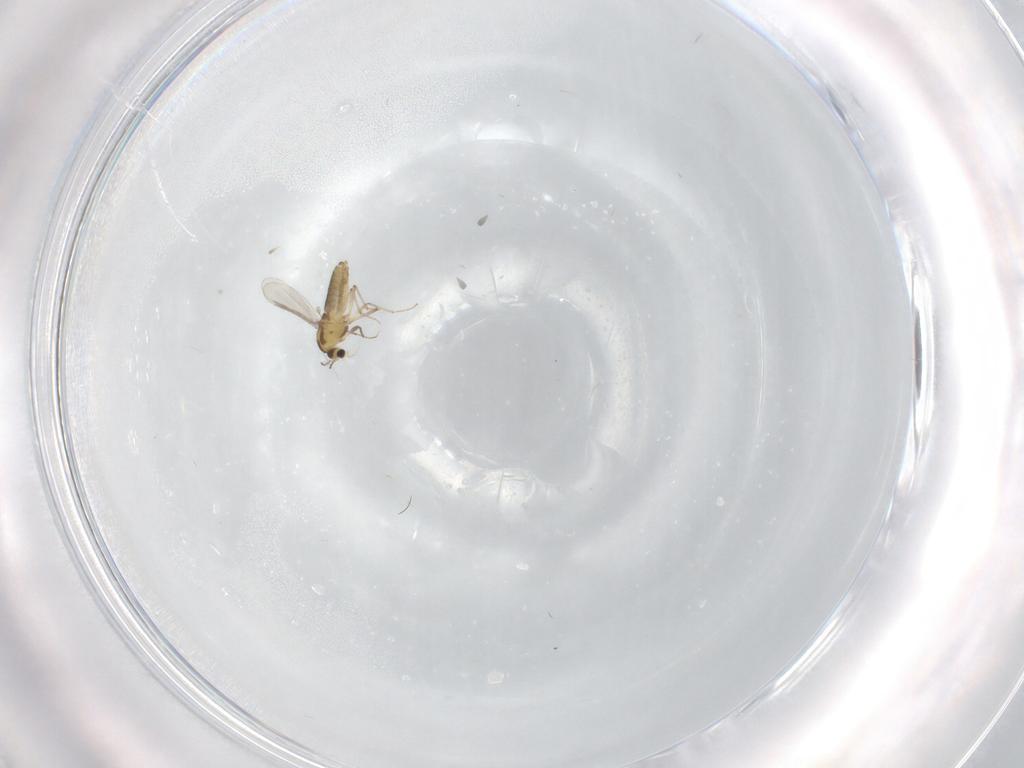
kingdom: Animalia
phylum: Arthropoda
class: Insecta
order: Diptera
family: Chironomidae
